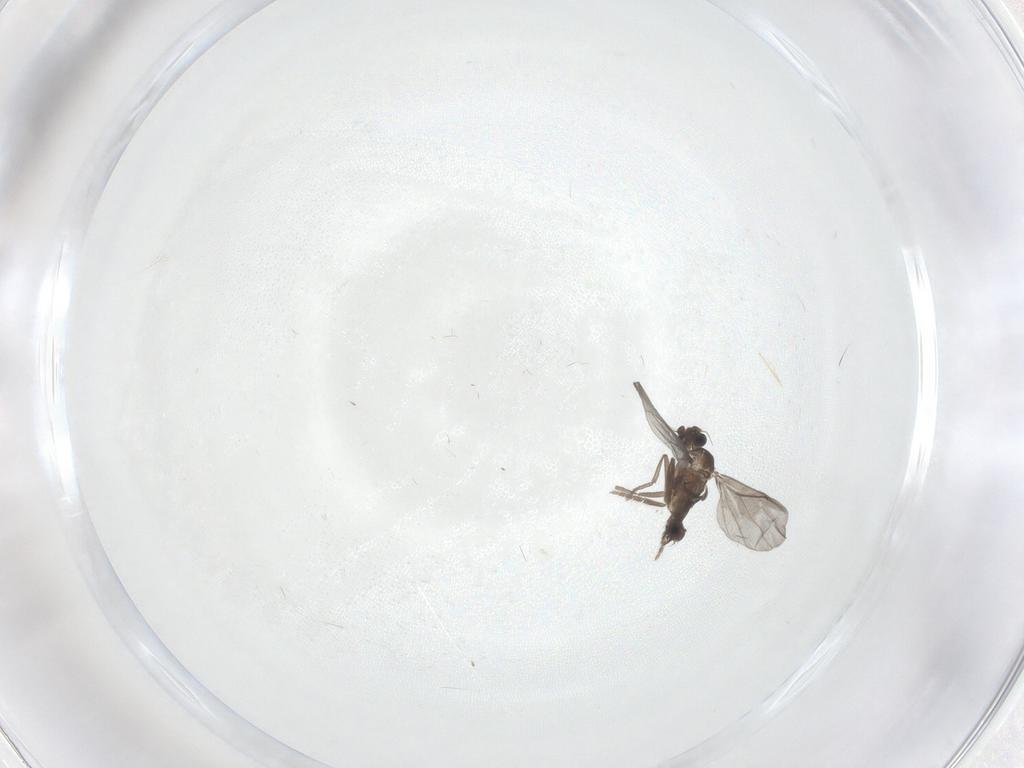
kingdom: Animalia
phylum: Arthropoda
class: Insecta
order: Diptera
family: Phoridae
